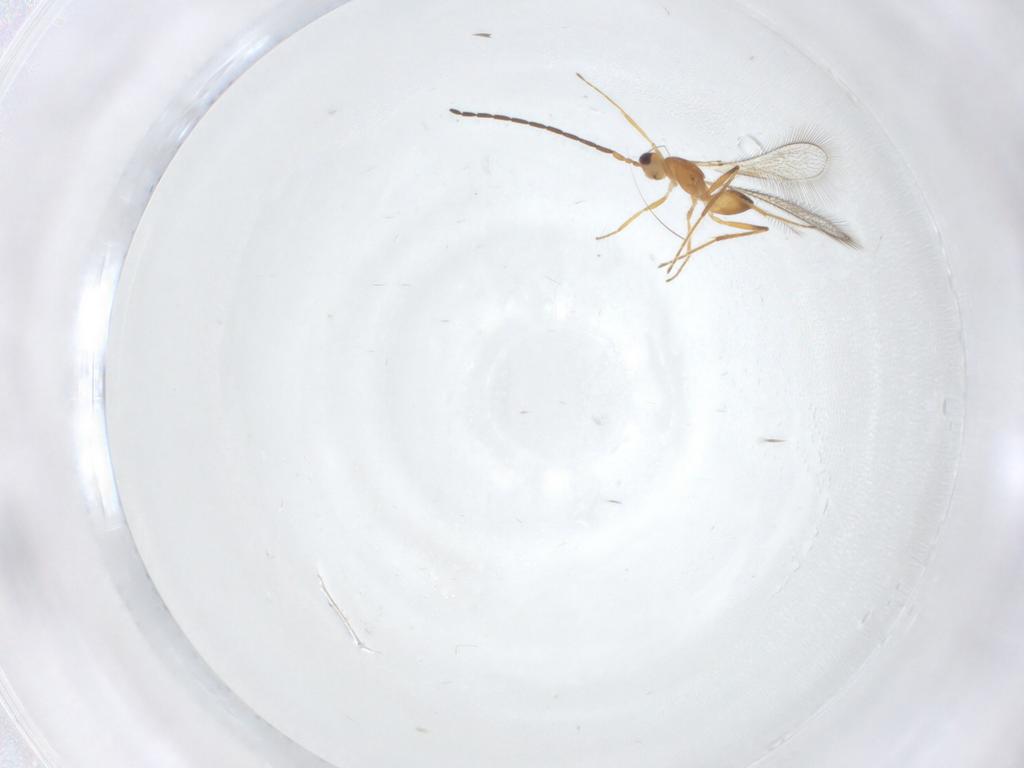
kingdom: Animalia
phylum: Arthropoda
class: Insecta
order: Hymenoptera
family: Mymaridae
